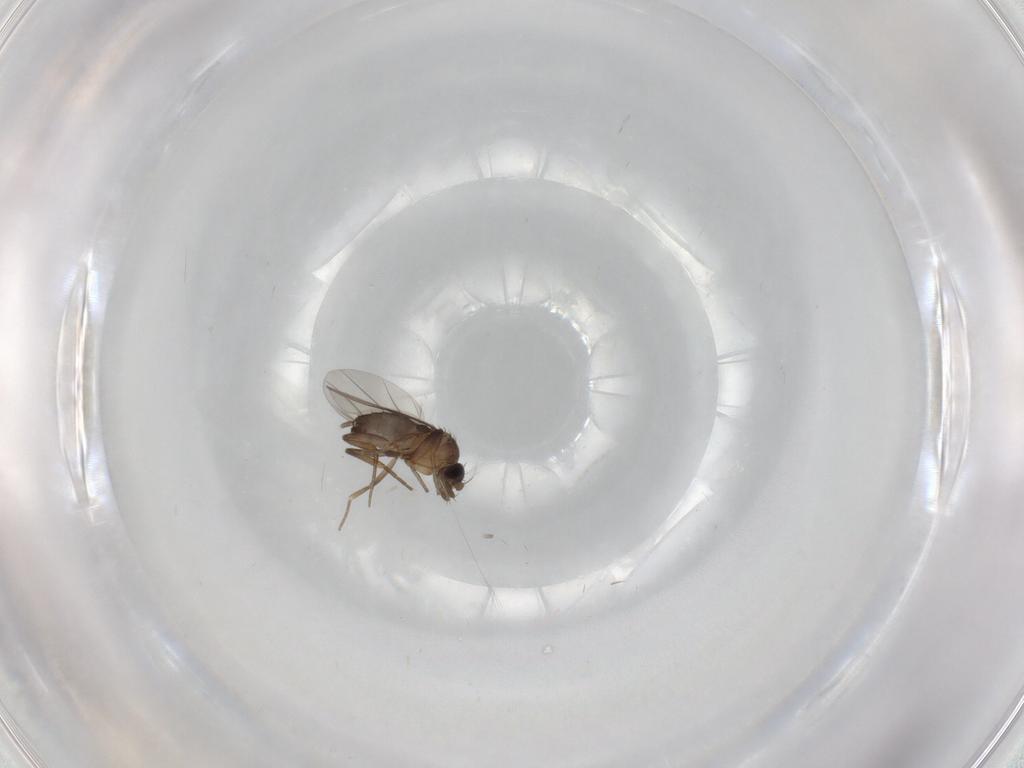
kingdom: Animalia
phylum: Arthropoda
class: Insecta
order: Diptera
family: Phoridae
